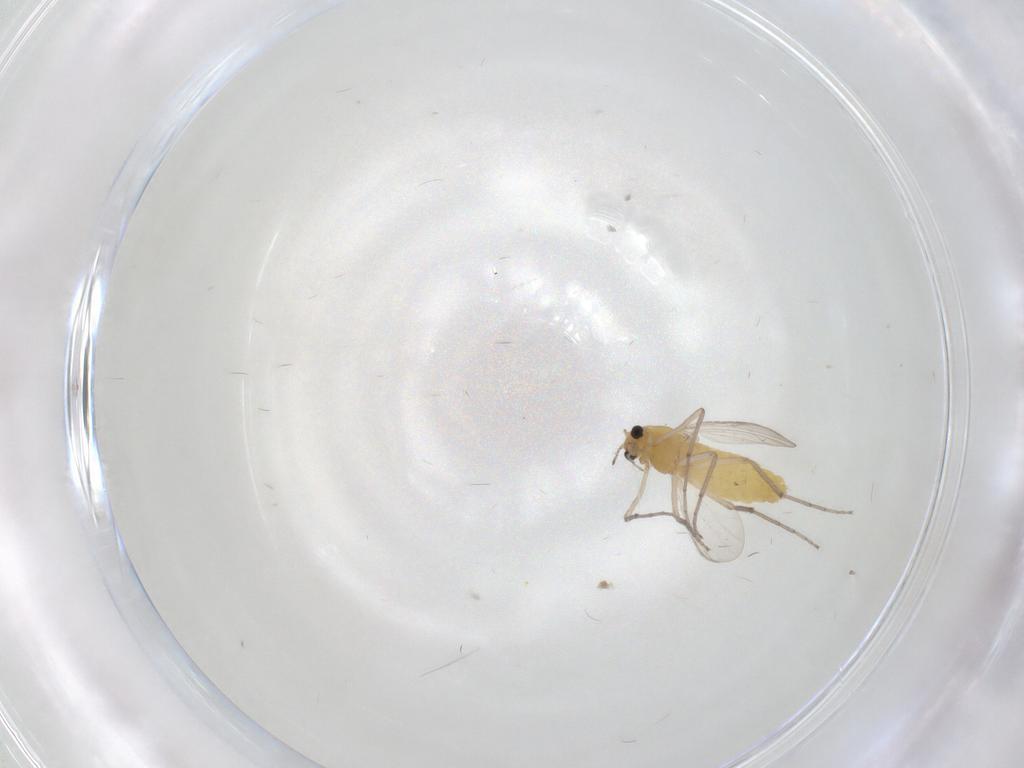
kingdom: Animalia
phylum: Arthropoda
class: Insecta
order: Diptera
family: Chironomidae
